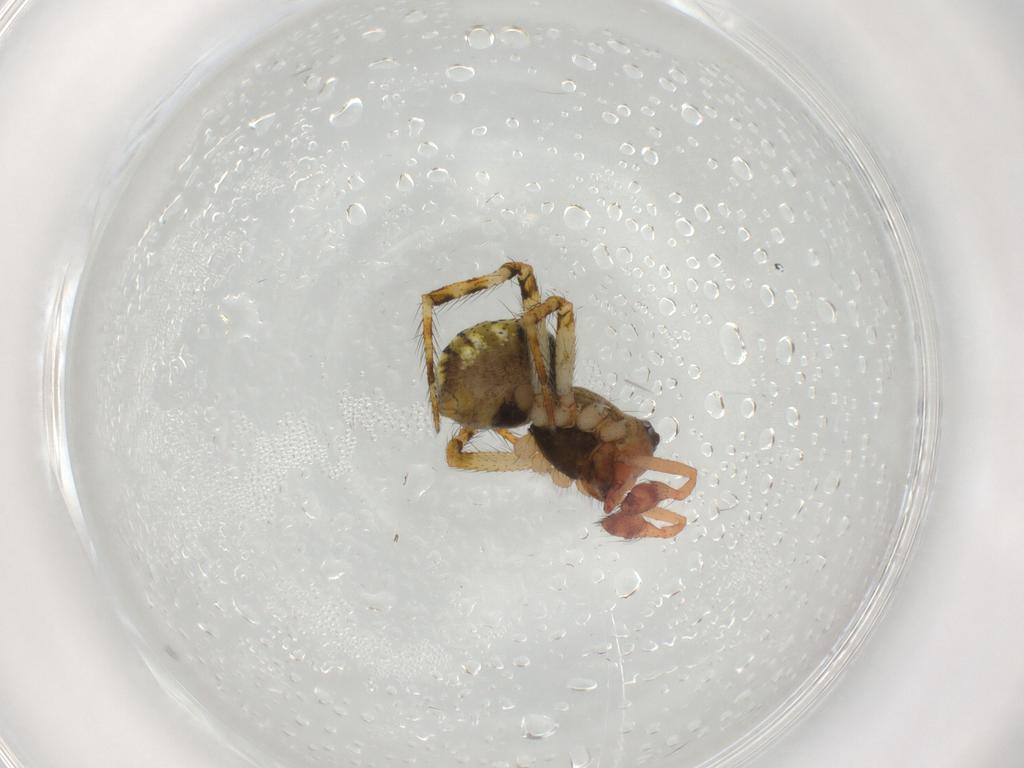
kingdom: Animalia
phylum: Arthropoda
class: Arachnida
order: Araneae
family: Theridiidae
